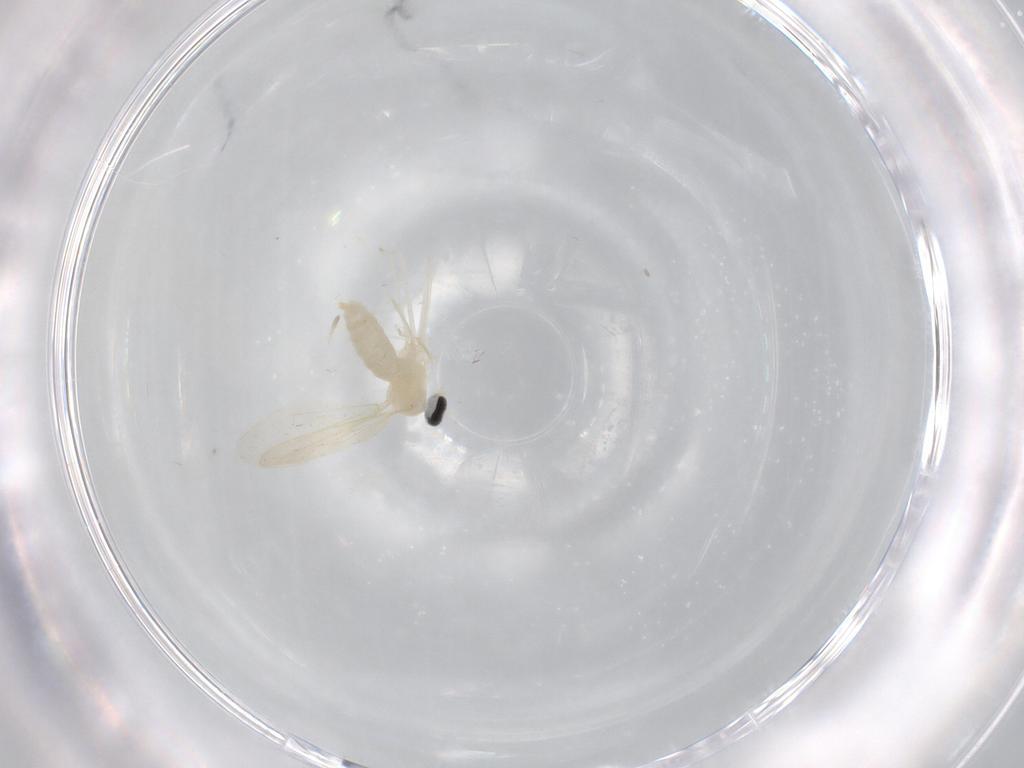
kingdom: Animalia
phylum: Arthropoda
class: Insecta
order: Diptera
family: Cecidomyiidae
